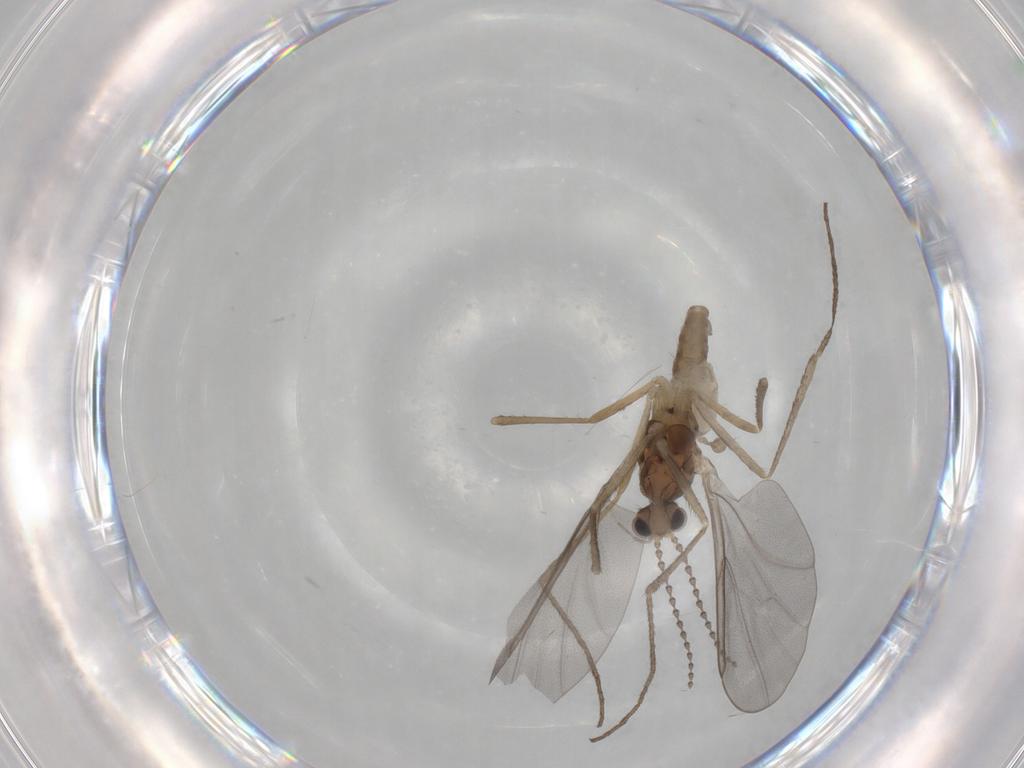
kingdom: Animalia
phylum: Arthropoda
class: Insecta
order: Diptera
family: Cecidomyiidae
